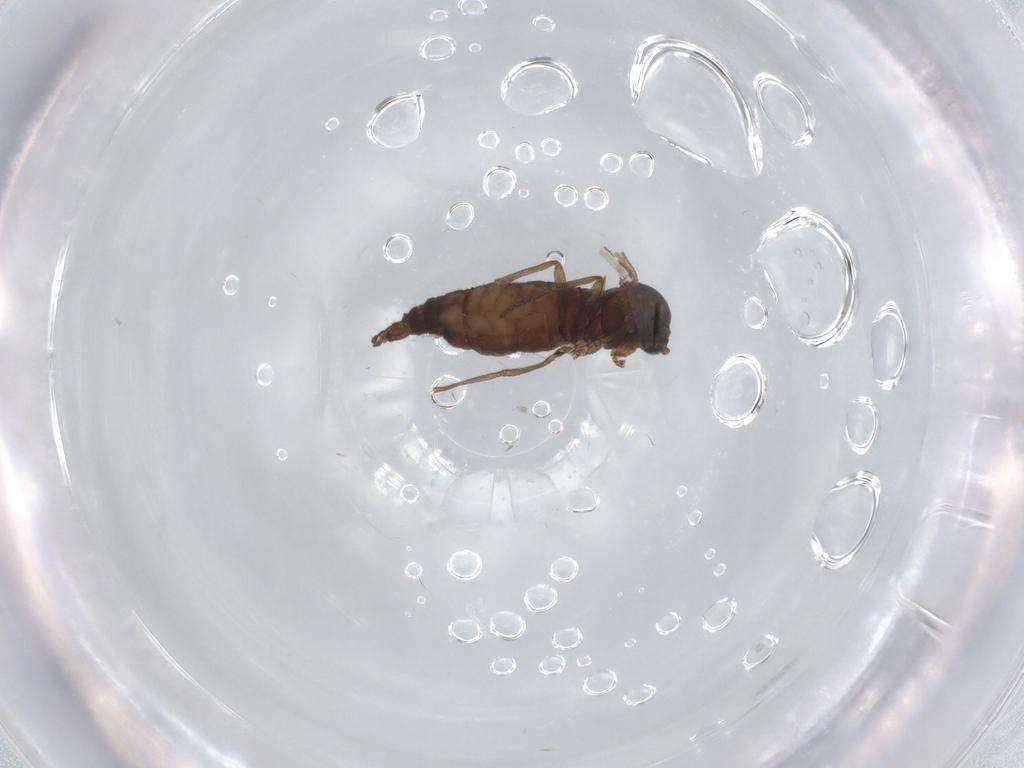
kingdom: Animalia
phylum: Arthropoda
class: Insecta
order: Diptera
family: Sciaridae
